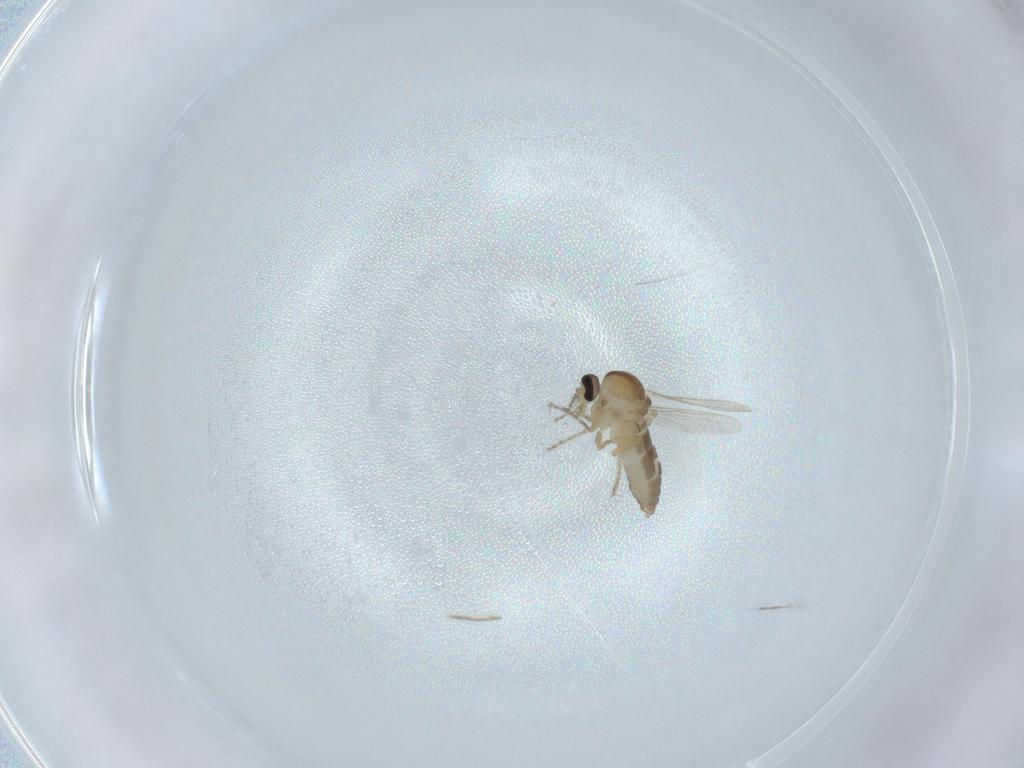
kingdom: Animalia
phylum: Arthropoda
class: Insecta
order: Diptera
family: Ceratopogonidae
